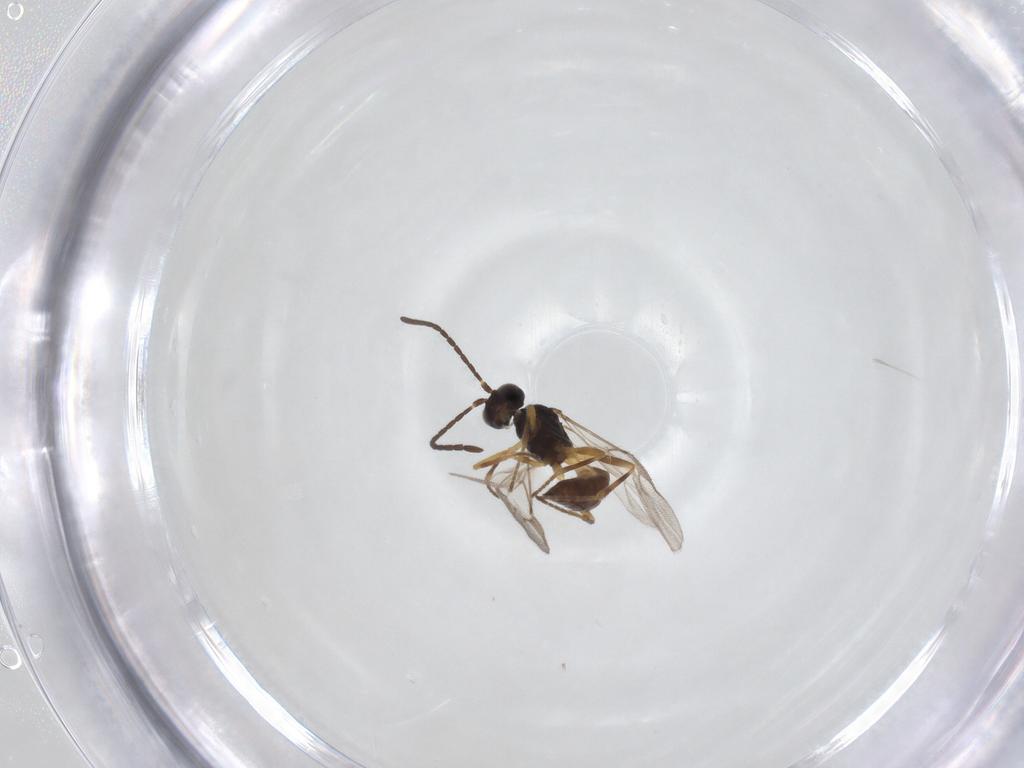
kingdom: Animalia
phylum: Arthropoda
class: Insecta
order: Hymenoptera
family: Braconidae
